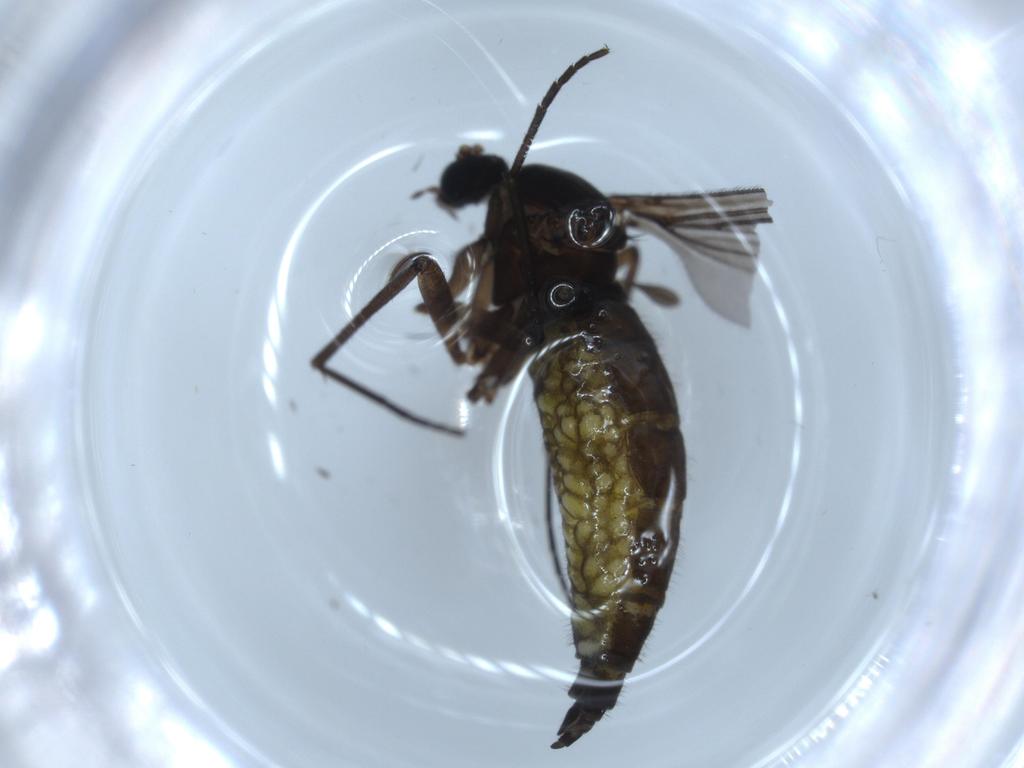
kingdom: Animalia
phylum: Arthropoda
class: Insecta
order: Diptera
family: Sciaridae
